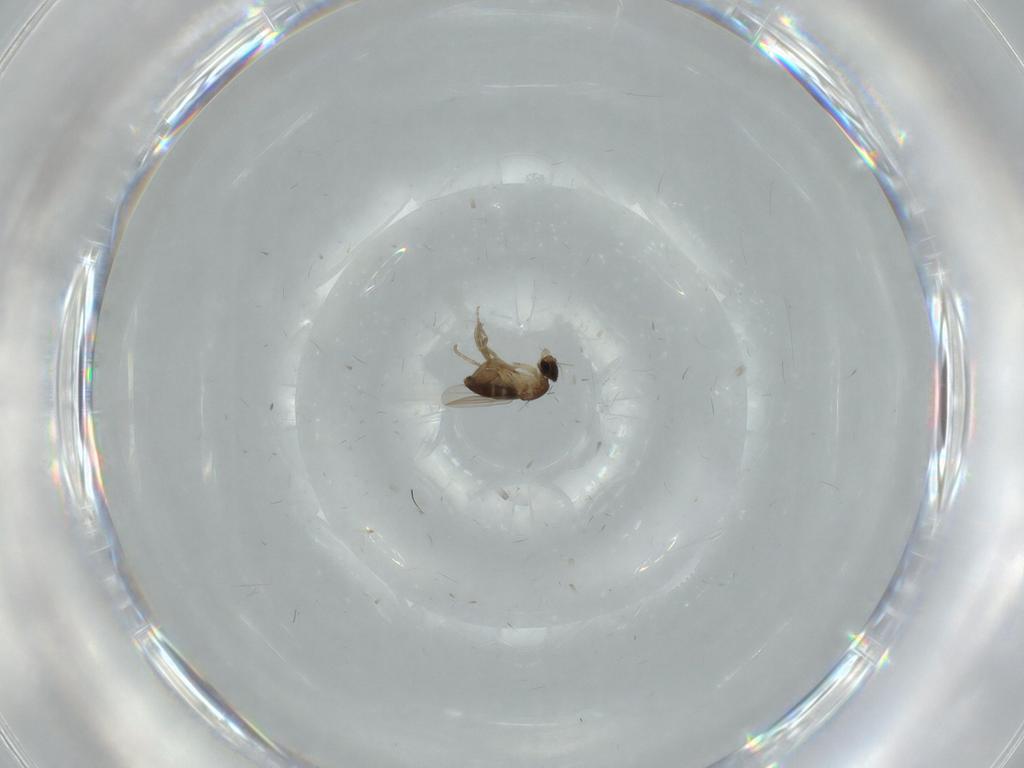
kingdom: Animalia
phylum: Arthropoda
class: Insecta
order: Diptera
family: Phoridae
